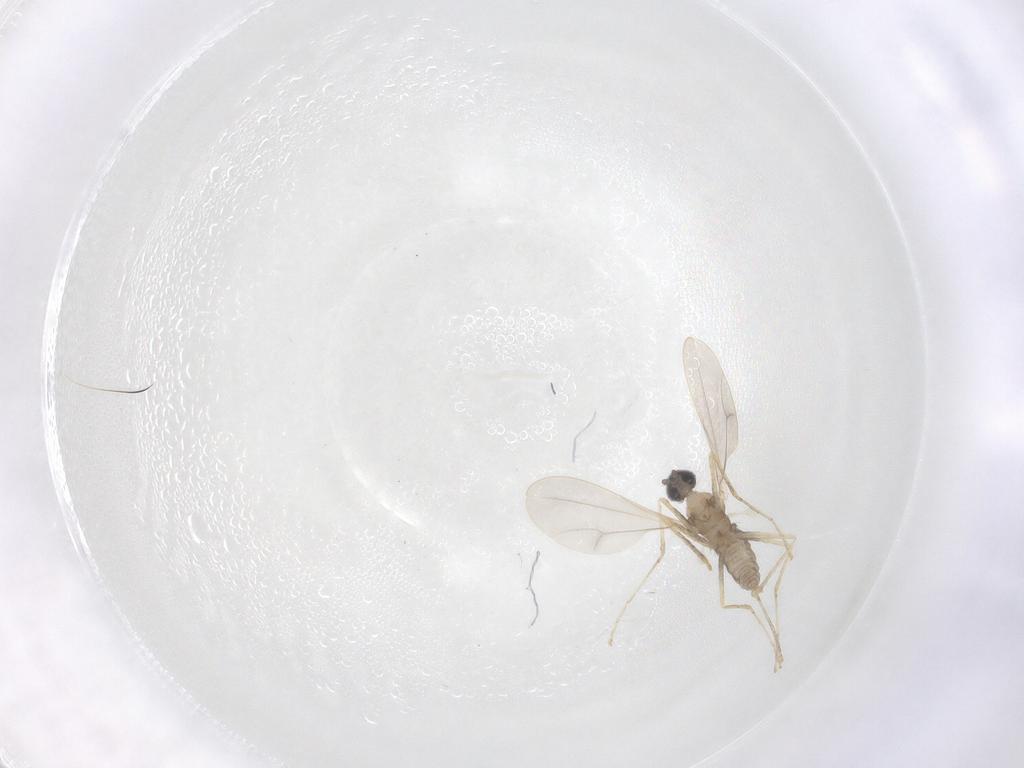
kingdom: Animalia
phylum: Arthropoda
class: Insecta
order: Diptera
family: Cecidomyiidae
